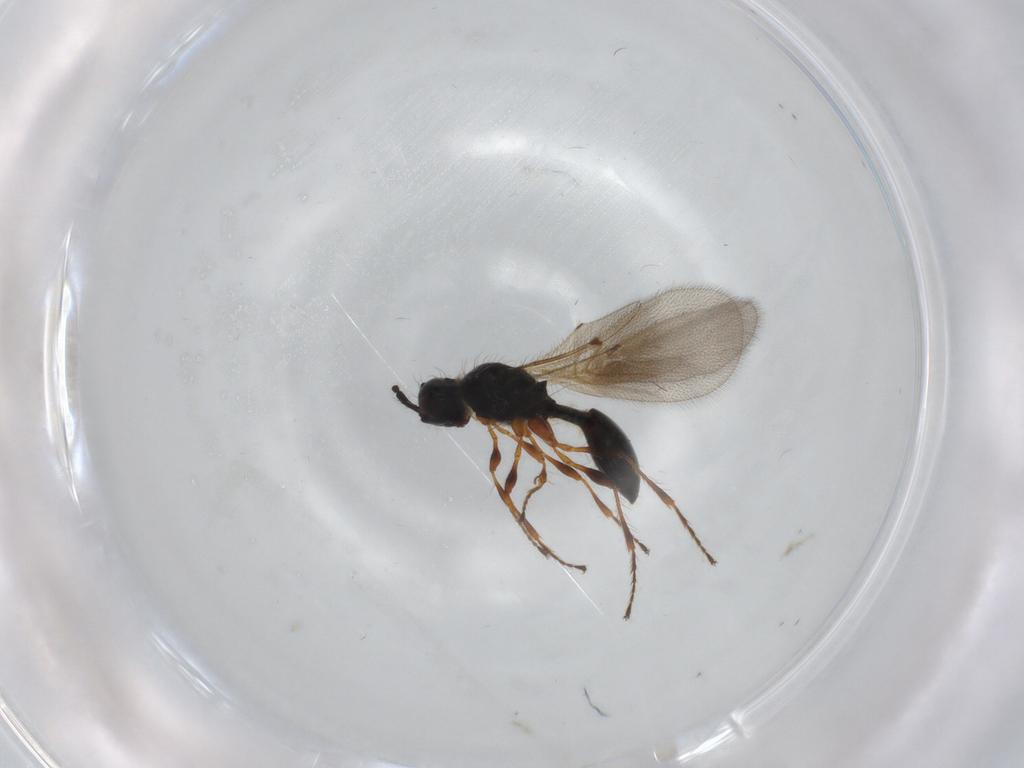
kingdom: Animalia
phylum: Arthropoda
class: Insecta
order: Hymenoptera
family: Diapriidae
